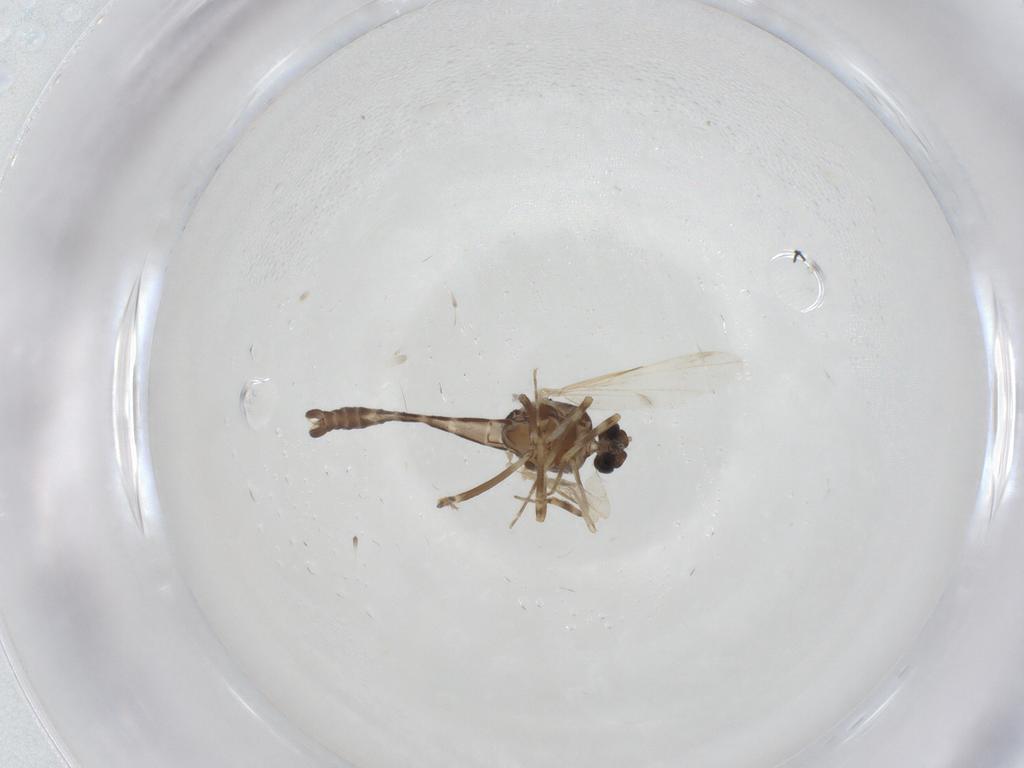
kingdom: Animalia
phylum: Arthropoda
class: Insecta
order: Diptera
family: Ceratopogonidae
